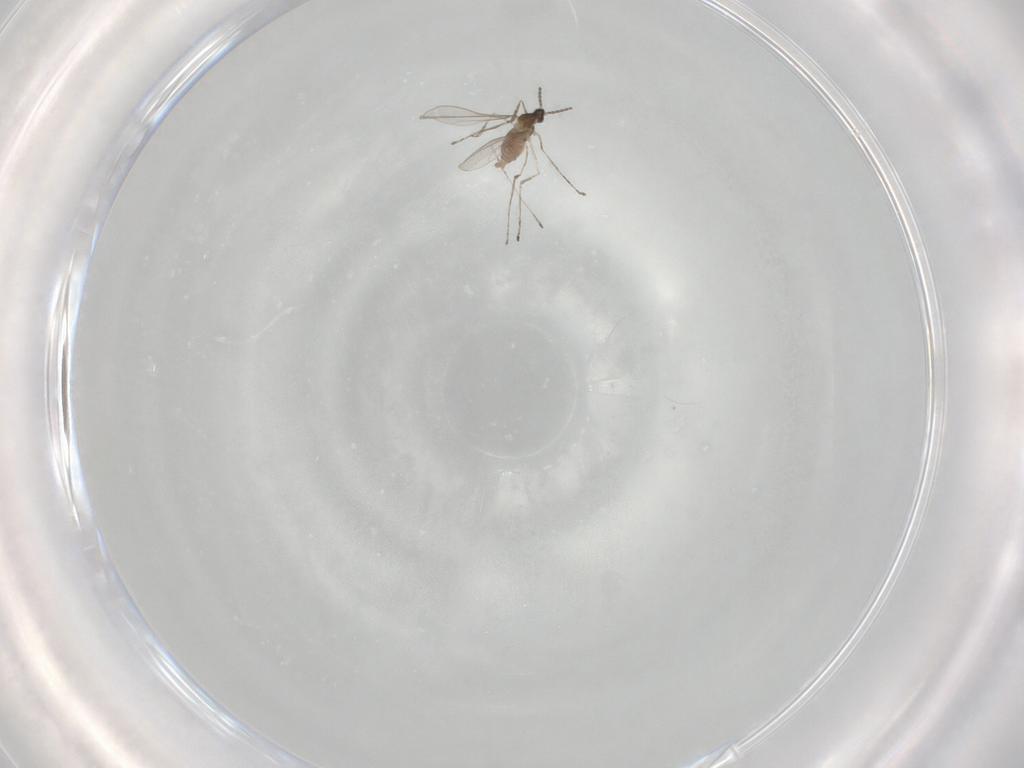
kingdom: Animalia
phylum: Arthropoda
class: Insecta
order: Diptera
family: Cecidomyiidae
